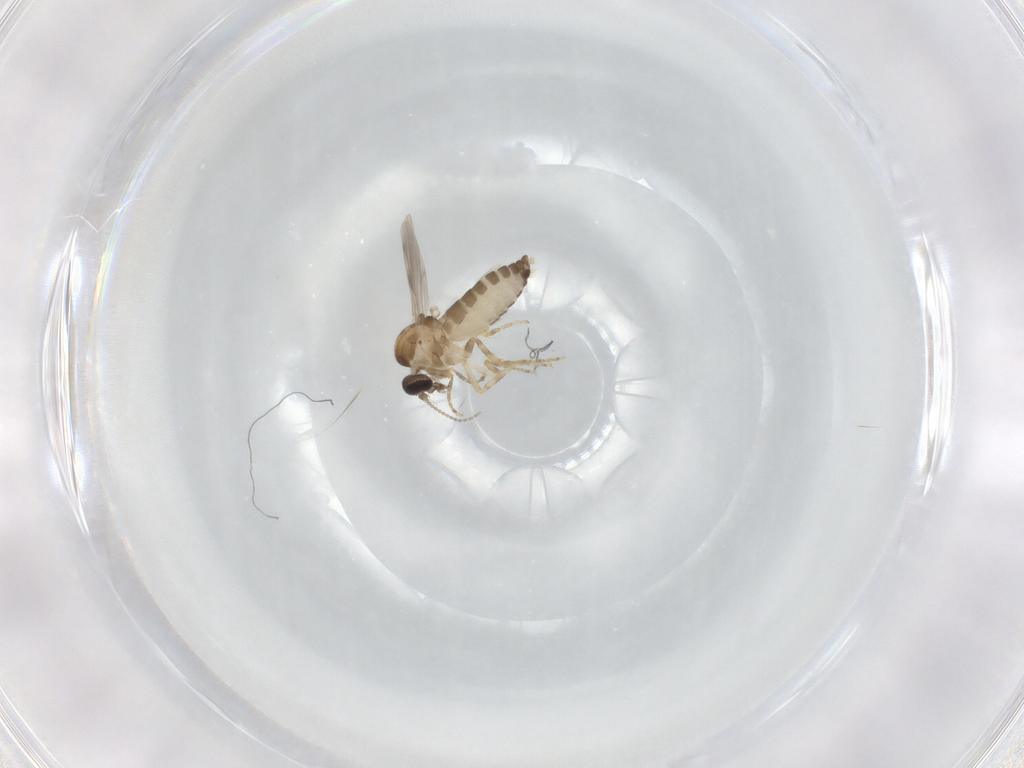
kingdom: Animalia
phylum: Arthropoda
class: Insecta
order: Diptera
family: Ceratopogonidae
